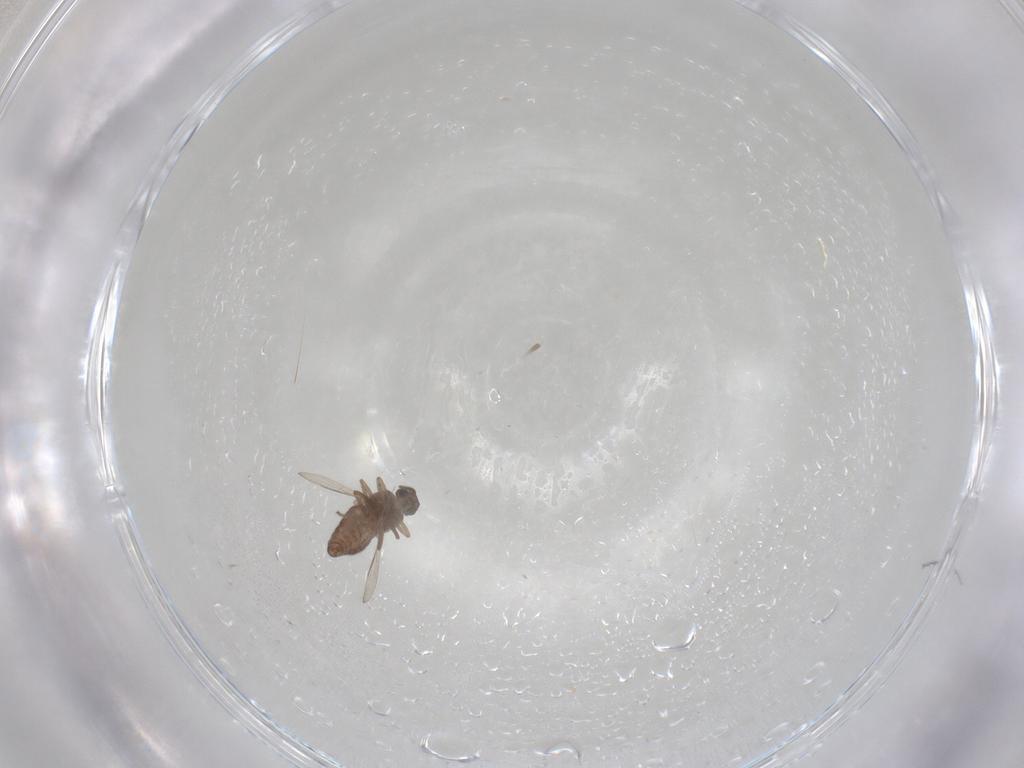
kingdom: Animalia
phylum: Arthropoda
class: Insecta
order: Diptera
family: Ceratopogonidae
